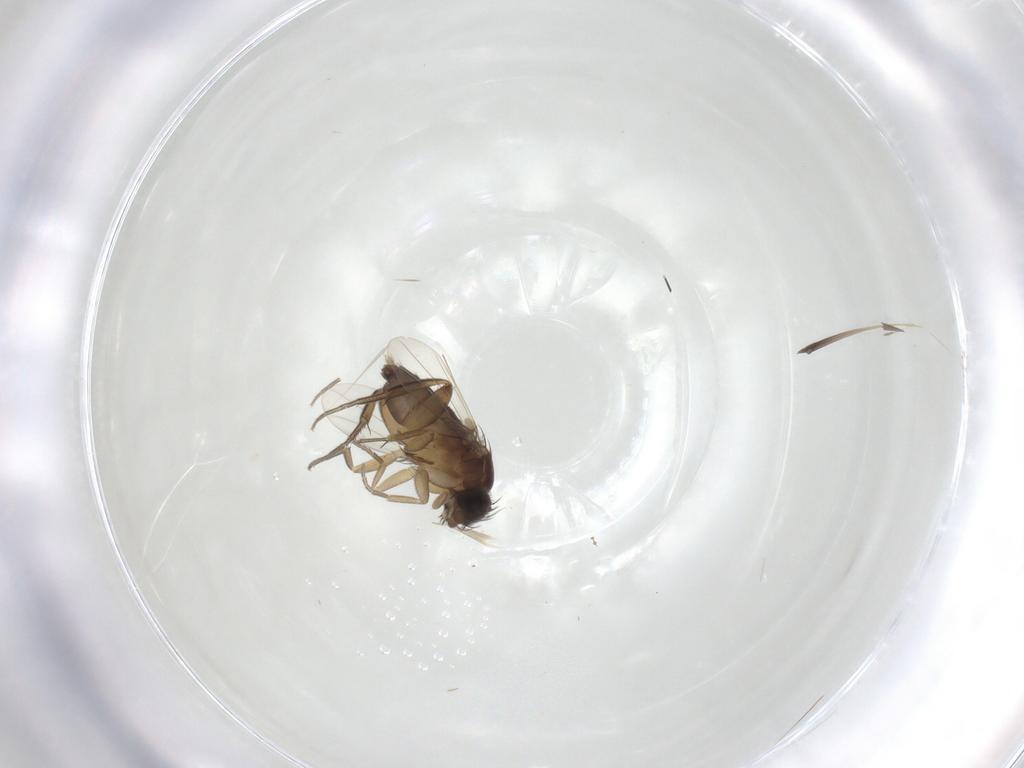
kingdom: Animalia
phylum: Arthropoda
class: Insecta
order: Diptera
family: Phoridae
